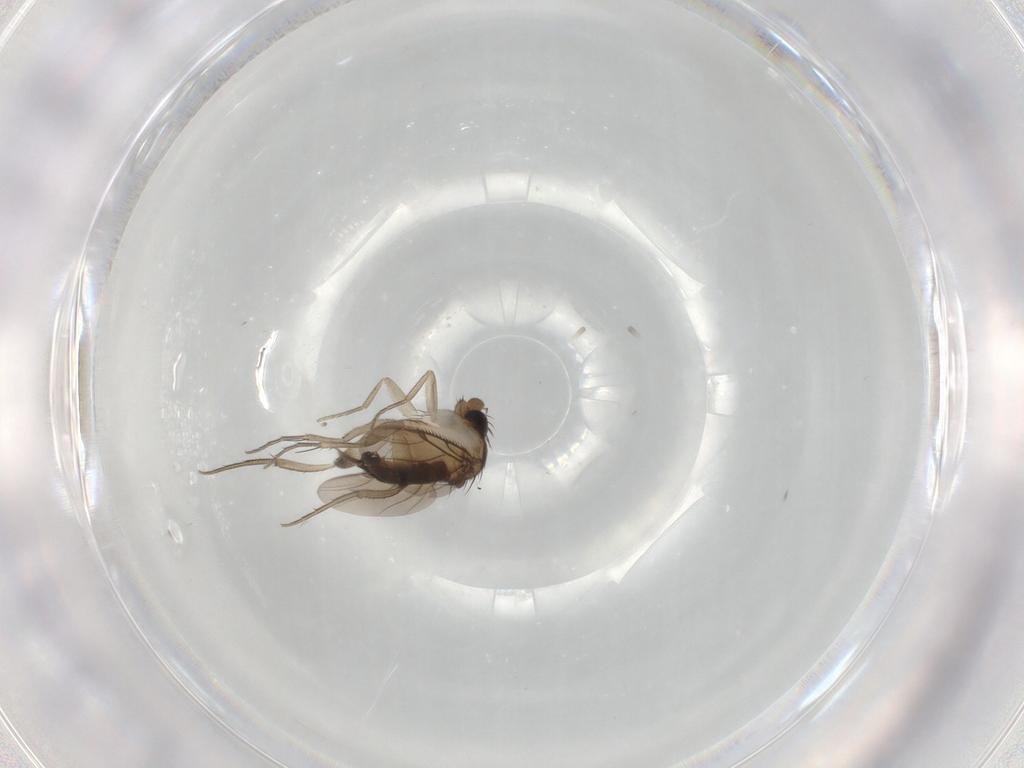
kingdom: Animalia
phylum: Arthropoda
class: Insecta
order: Diptera
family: Phoridae
